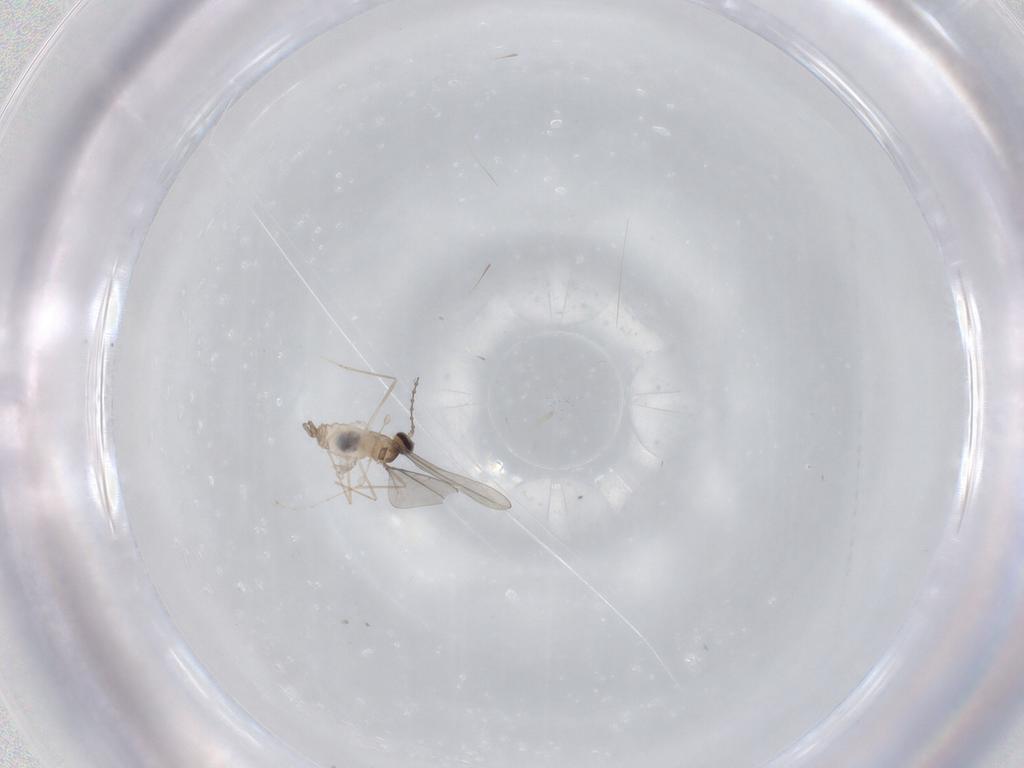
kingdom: Animalia
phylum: Arthropoda
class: Insecta
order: Diptera
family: Cecidomyiidae
